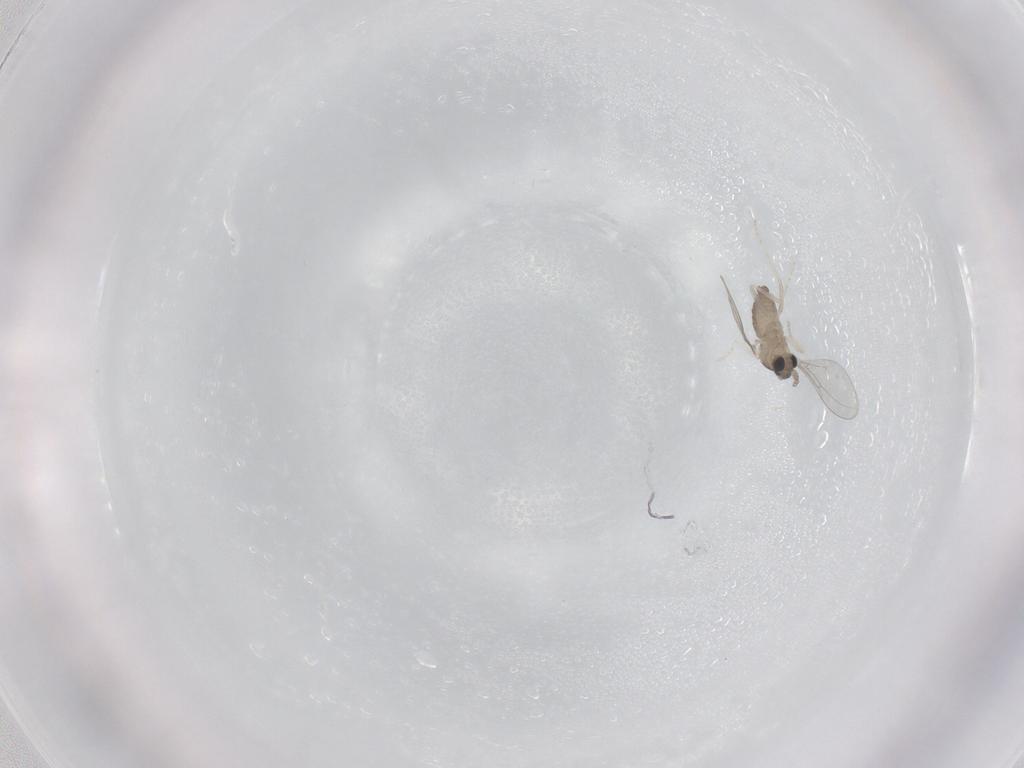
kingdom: Animalia
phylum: Arthropoda
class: Insecta
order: Diptera
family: Cecidomyiidae
